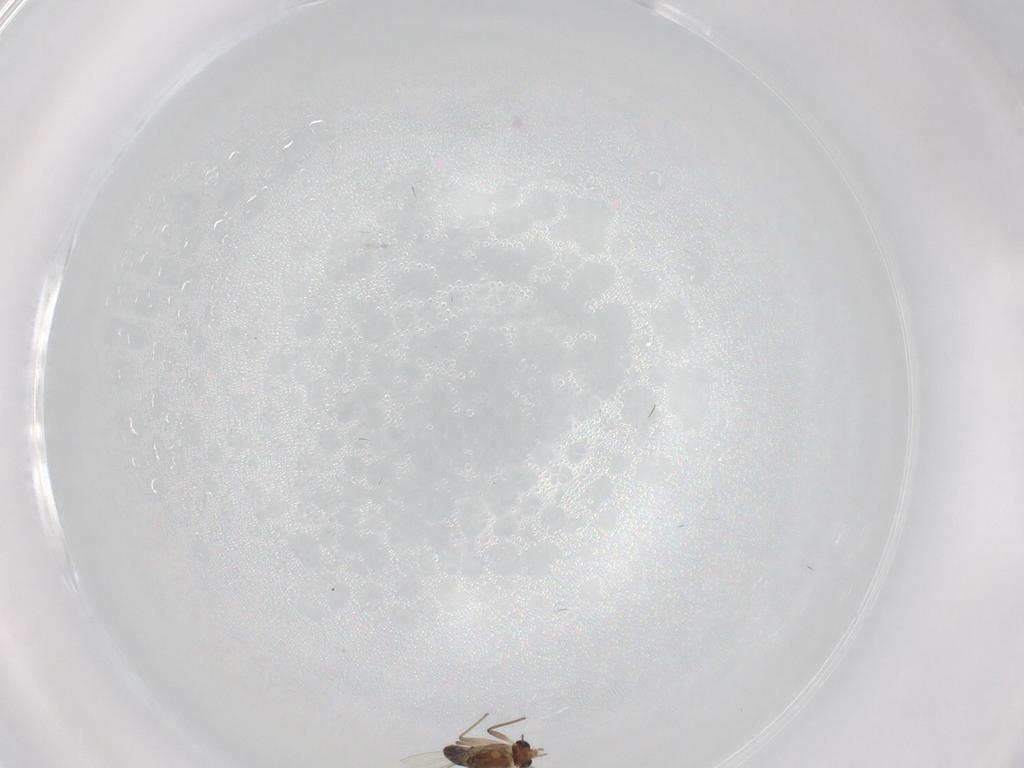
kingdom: Animalia
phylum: Arthropoda
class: Insecta
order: Diptera
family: Chironomidae
